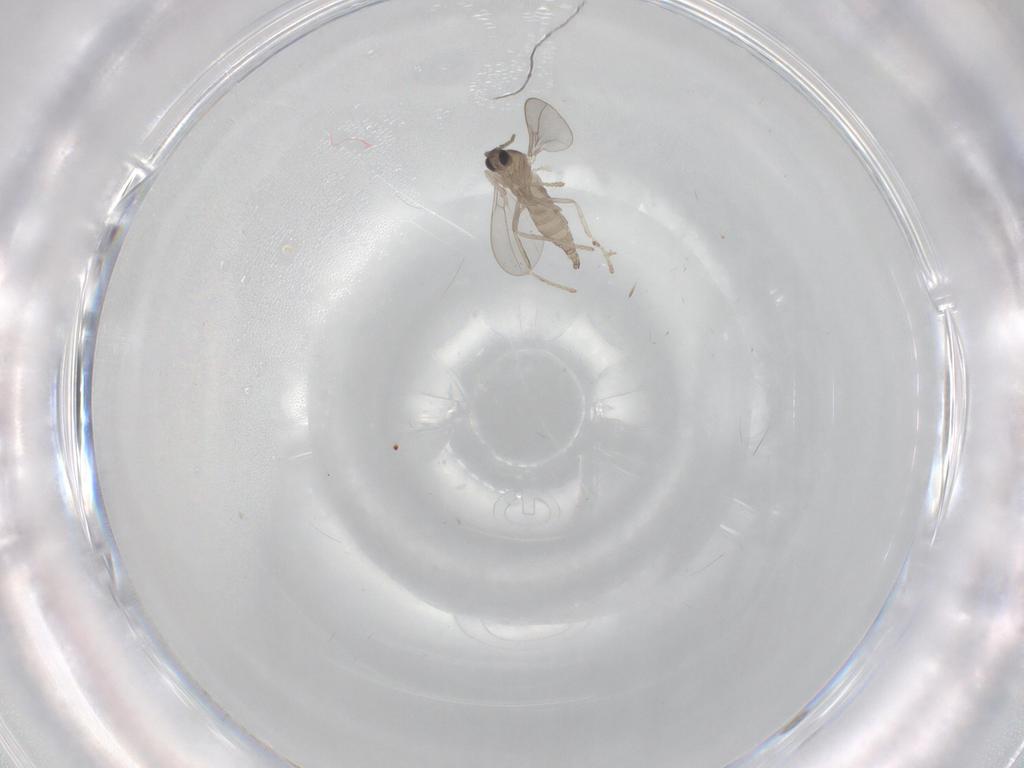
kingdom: Animalia
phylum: Arthropoda
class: Insecta
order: Diptera
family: Cecidomyiidae
